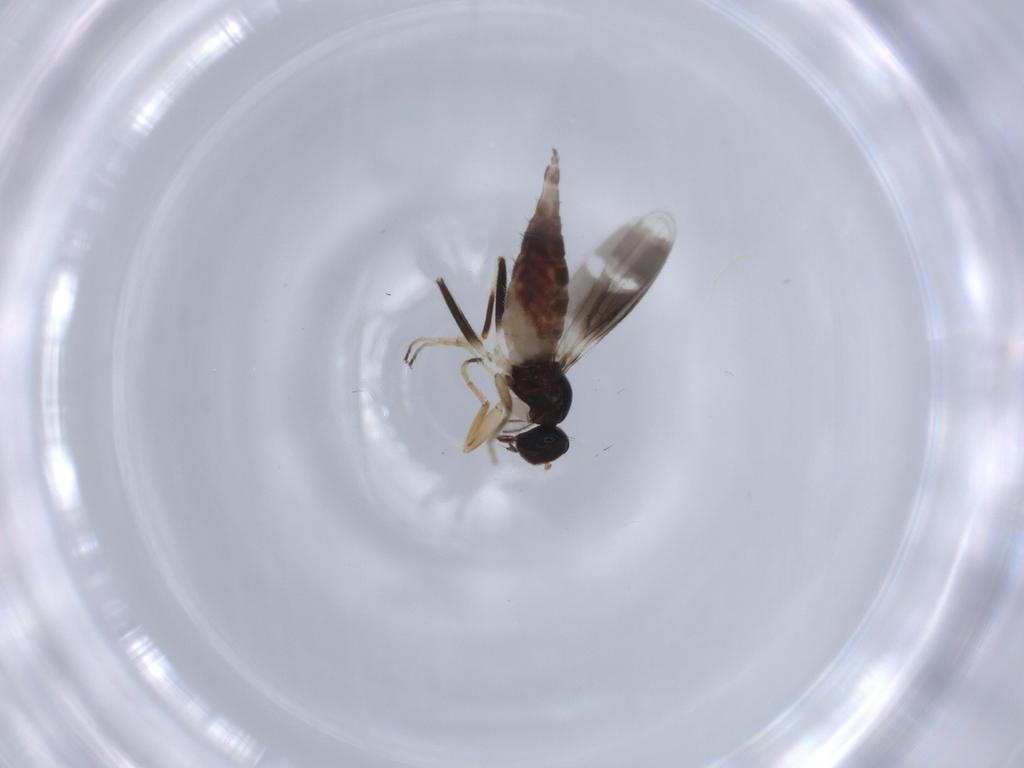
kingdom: Animalia
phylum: Arthropoda
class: Insecta
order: Diptera
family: Hybotidae
